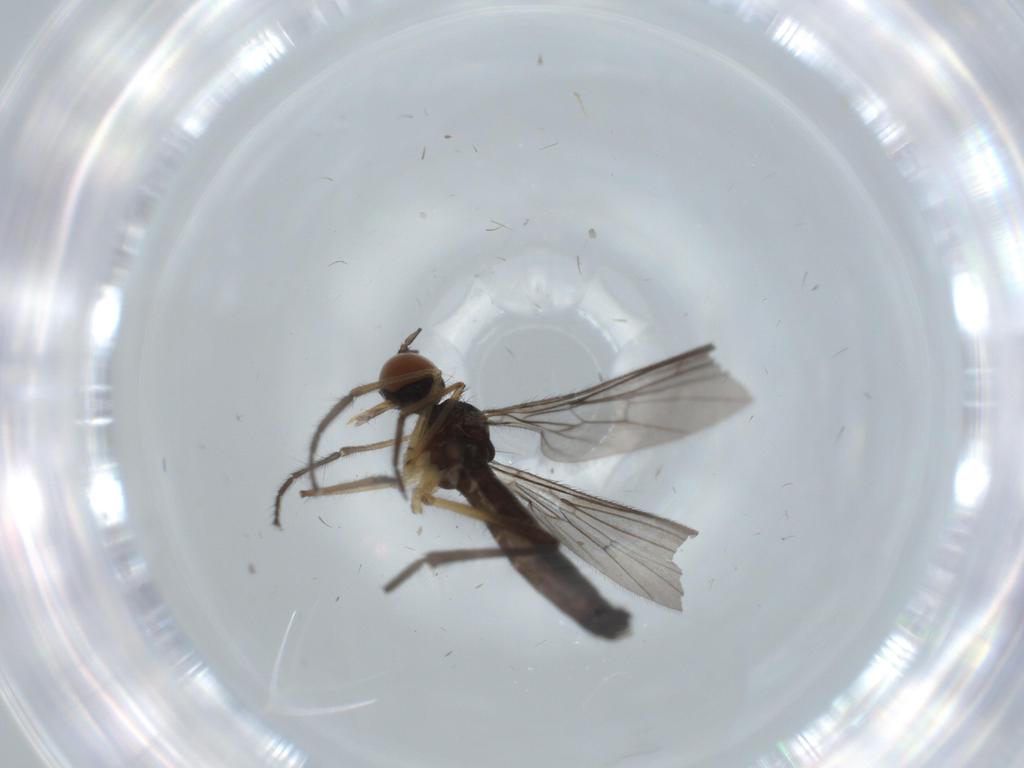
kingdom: Animalia
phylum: Arthropoda
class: Insecta
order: Diptera
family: Empididae
